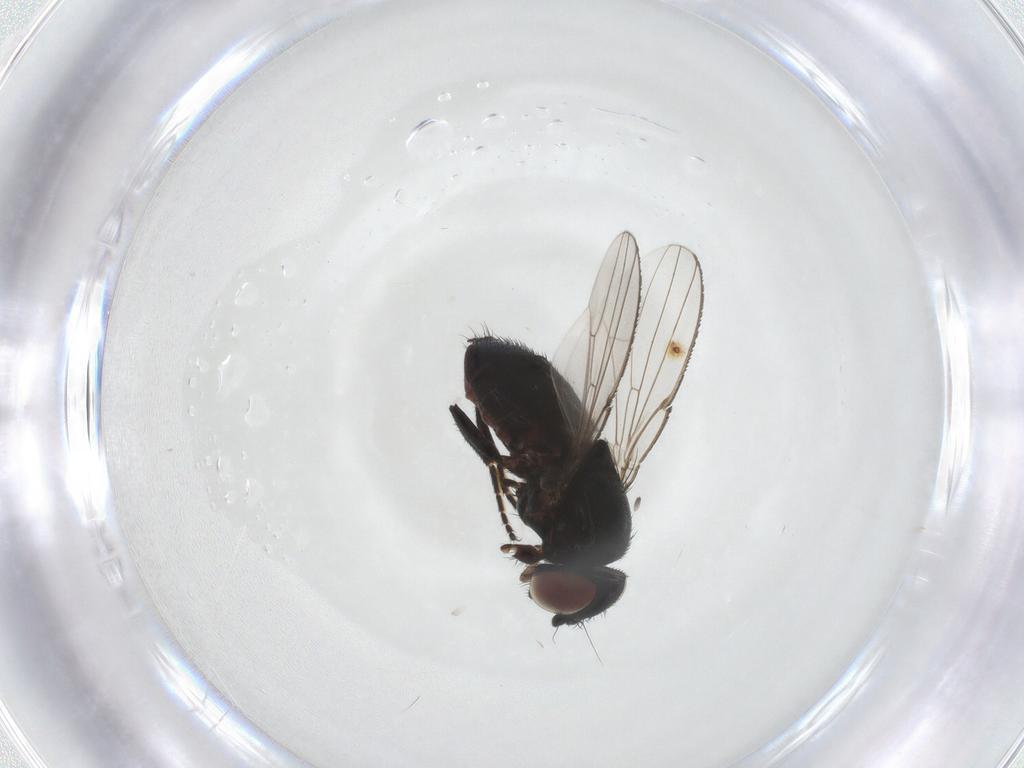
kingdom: Animalia
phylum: Arthropoda
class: Insecta
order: Diptera
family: Milichiidae
